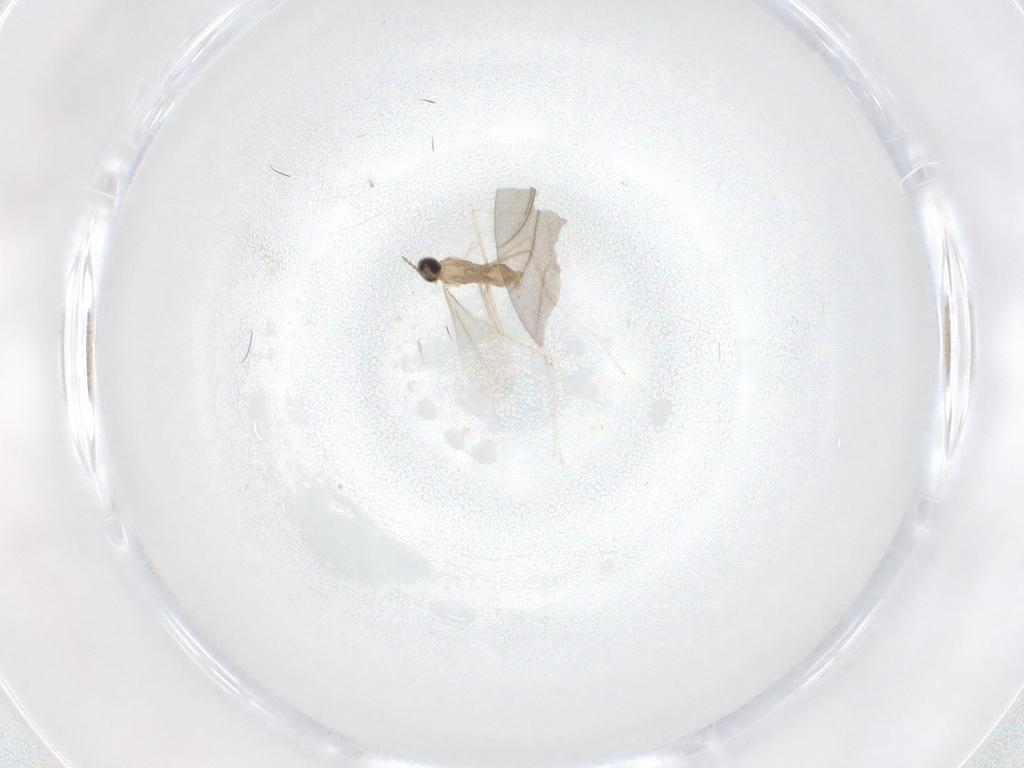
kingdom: Animalia
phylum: Arthropoda
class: Insecta
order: Diptera
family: Cecidomyiidae
